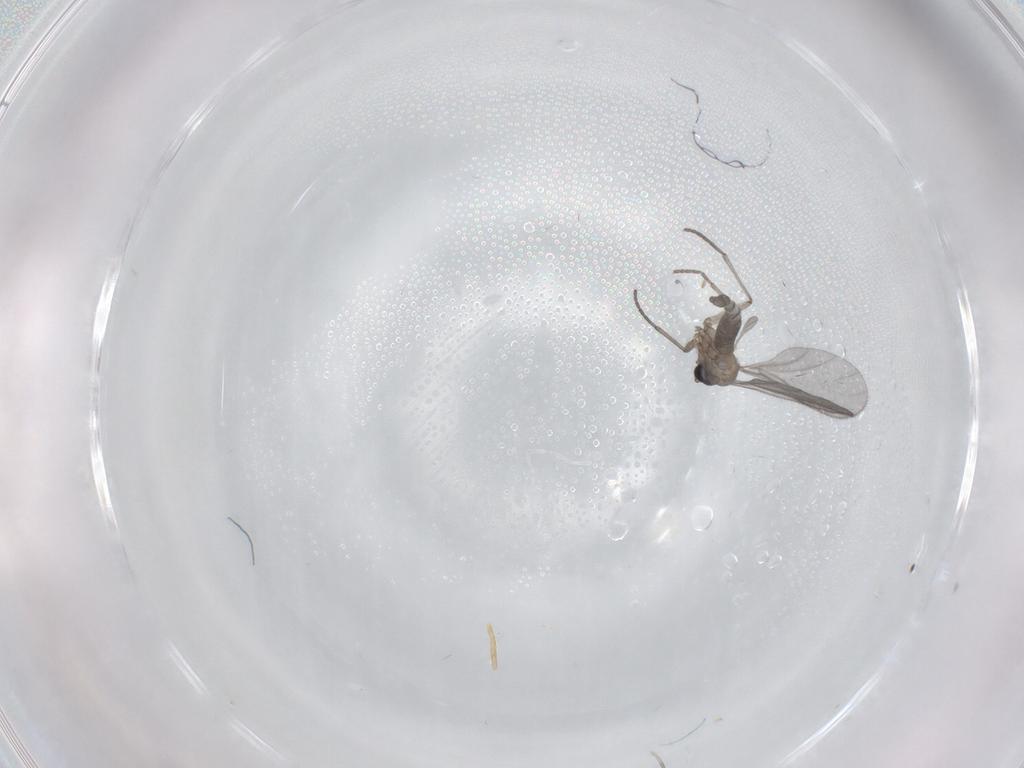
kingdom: Animalia
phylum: Arthropoda
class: Insecta
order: Diptera
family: Sciaridae
